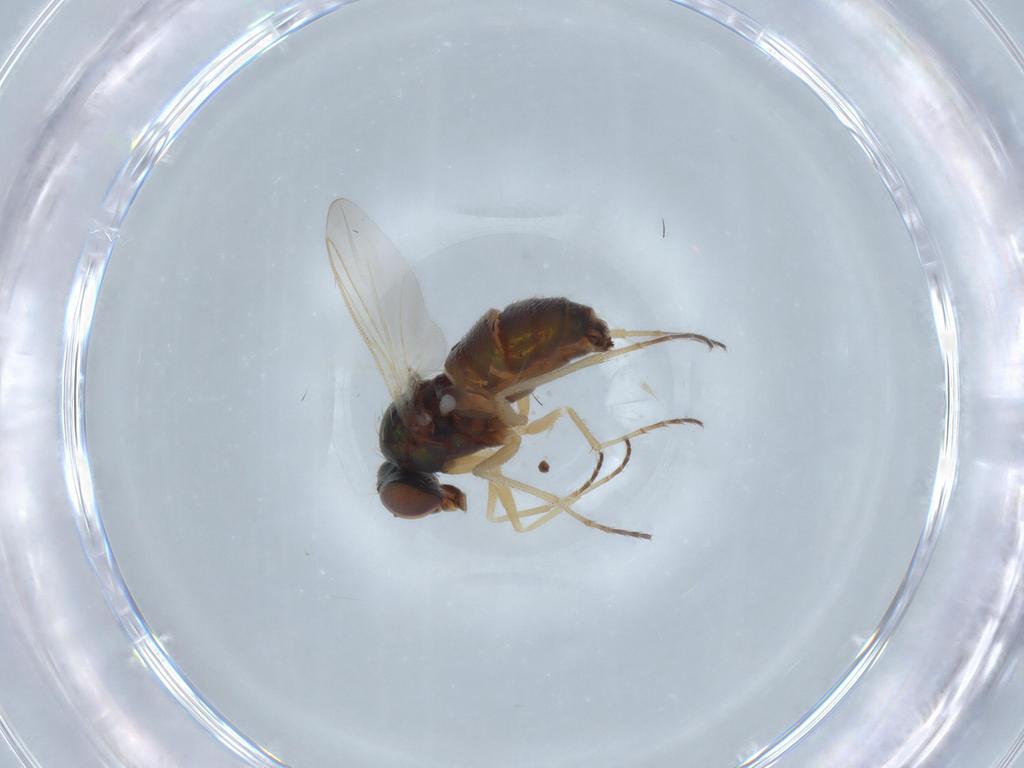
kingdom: Animalia
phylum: Arthropoda
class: Insecta
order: Diptera
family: Dolichopodidae
